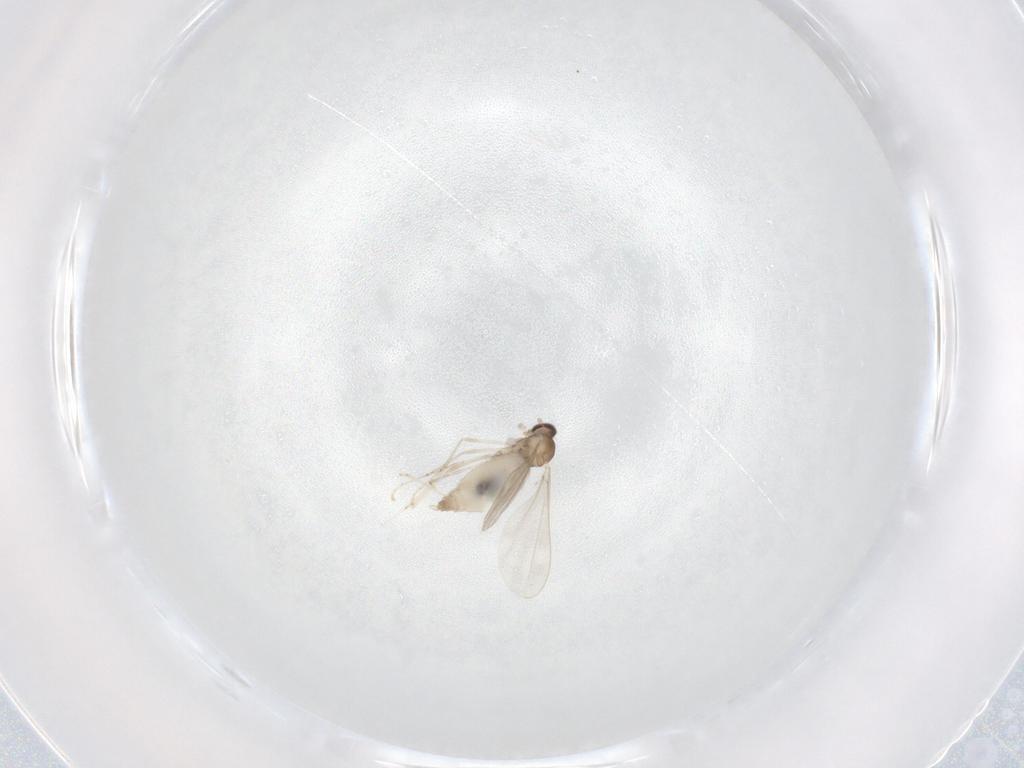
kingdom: Animalia
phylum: Arthropoda
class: Insecta
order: Diptera
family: Cecidomyiidae
